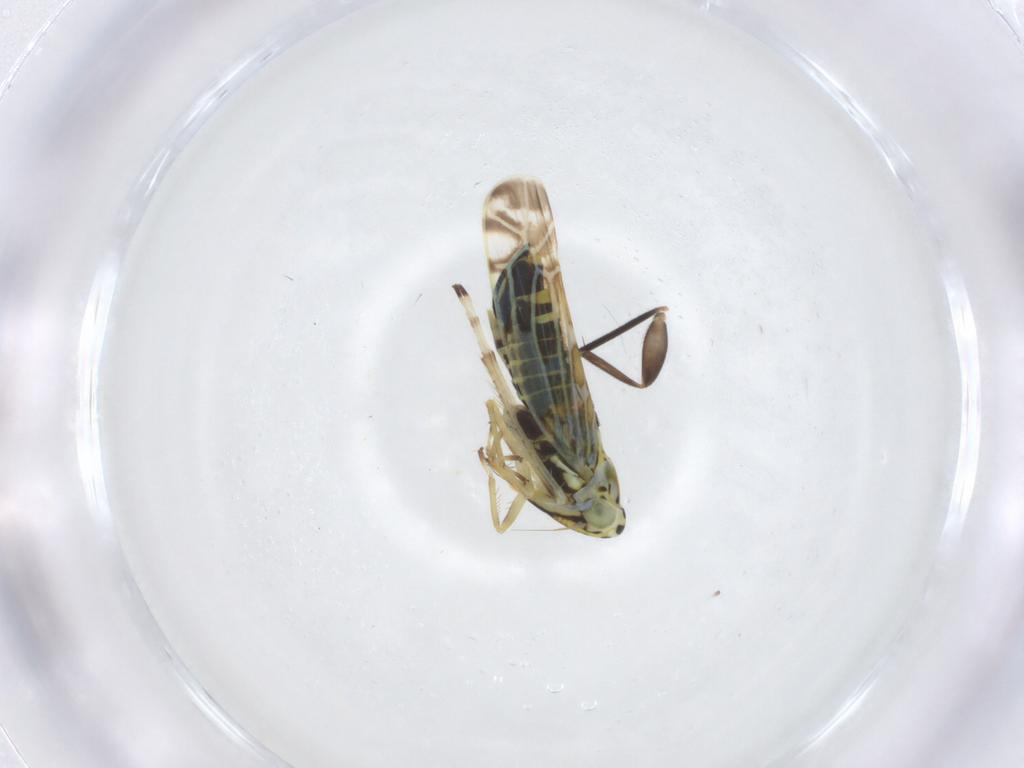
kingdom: Animalia
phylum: Arthropoda
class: Insecta
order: Hemiptera
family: Cicadellidae
